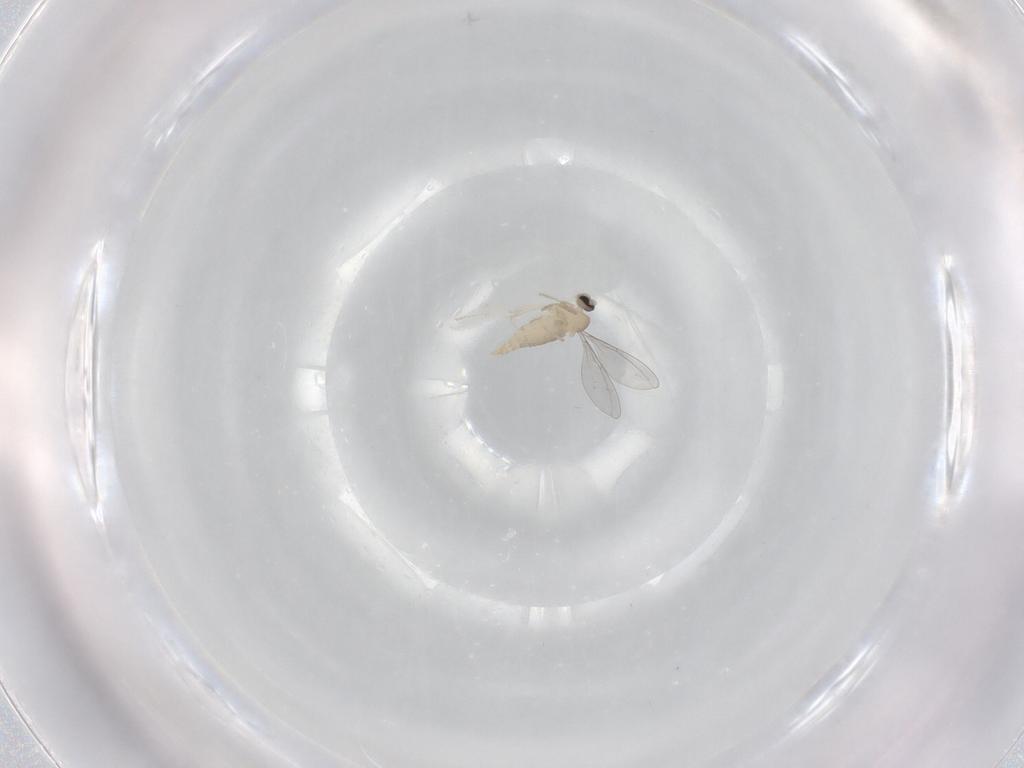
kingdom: Animalia
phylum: Arthropoda
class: Insecta
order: Diptera
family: Cecidomyiidae
